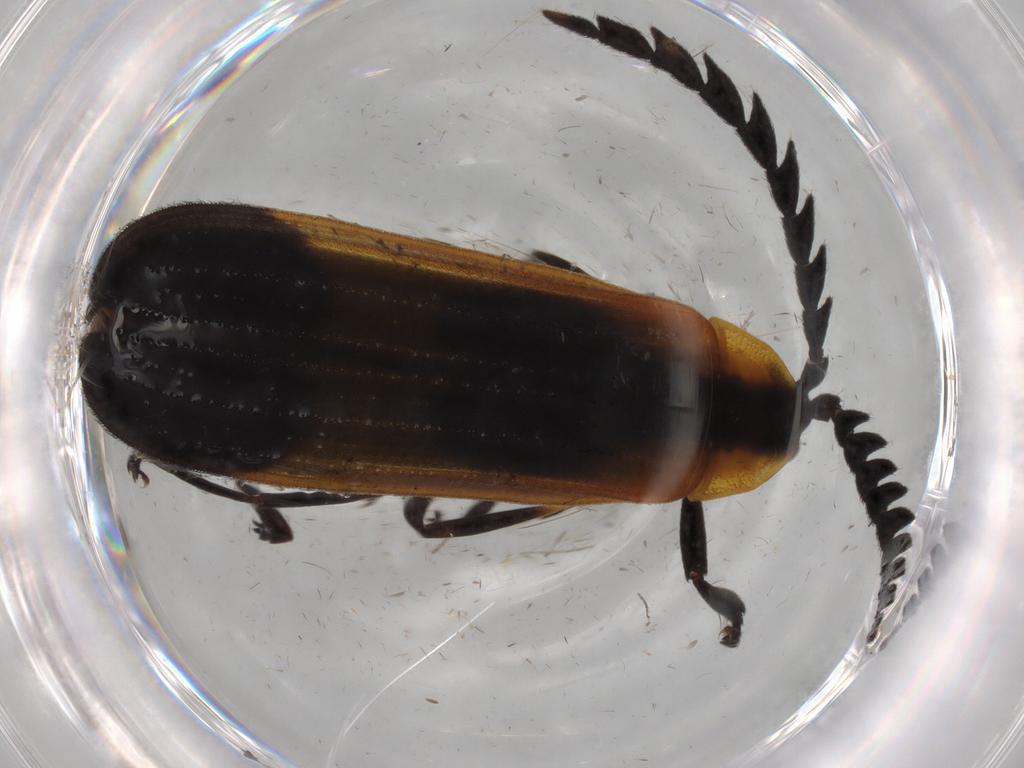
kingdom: Animalia
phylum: Arthropoda
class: Insecta
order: Coleoptera
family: Lycidae
